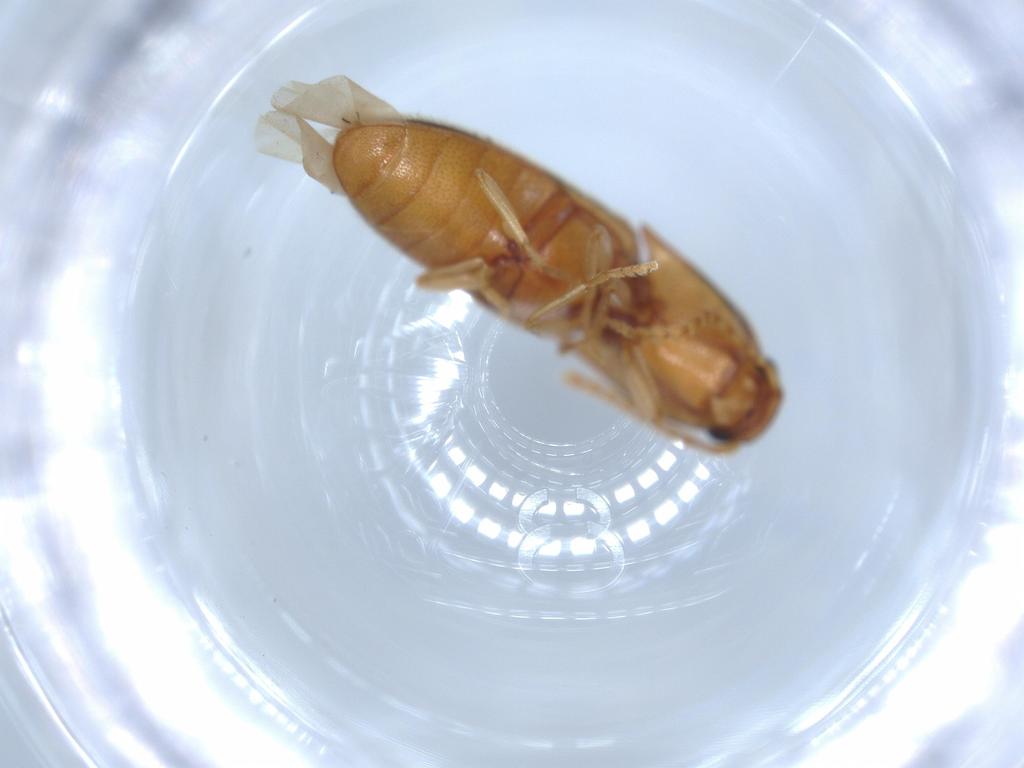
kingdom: Animalia
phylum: Arthropoda
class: Insecta
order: Coleoptera
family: Elateridae
